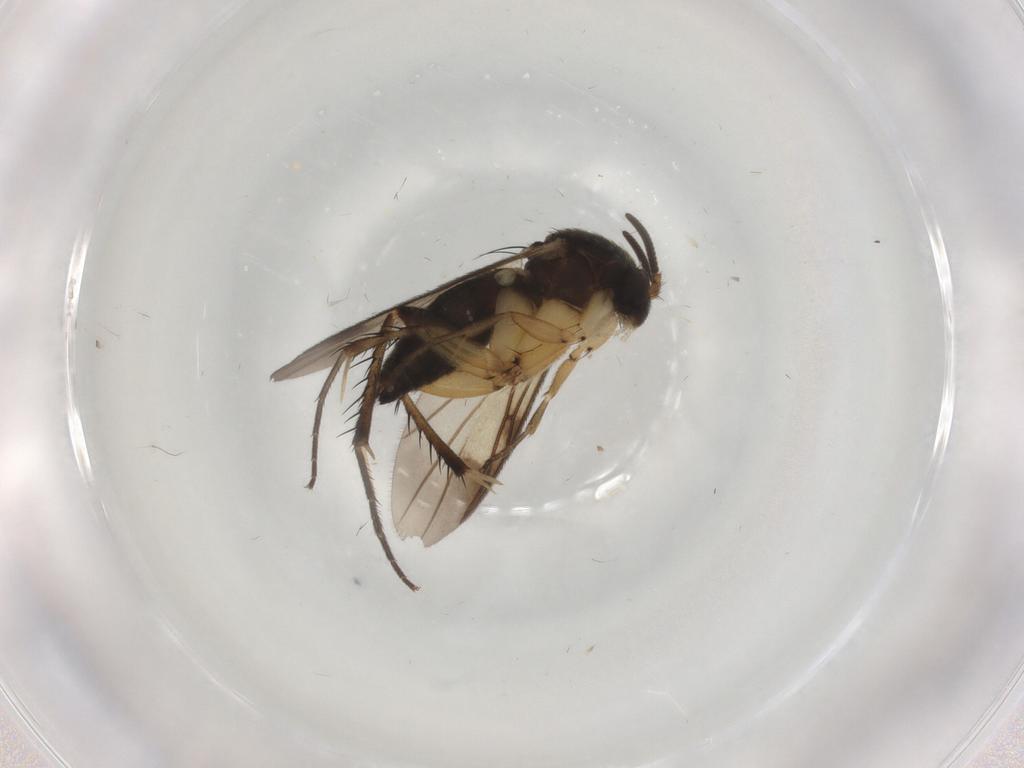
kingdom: Animalia
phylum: Arthropoda
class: Insecta
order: Diptera
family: Mycetophilidae
